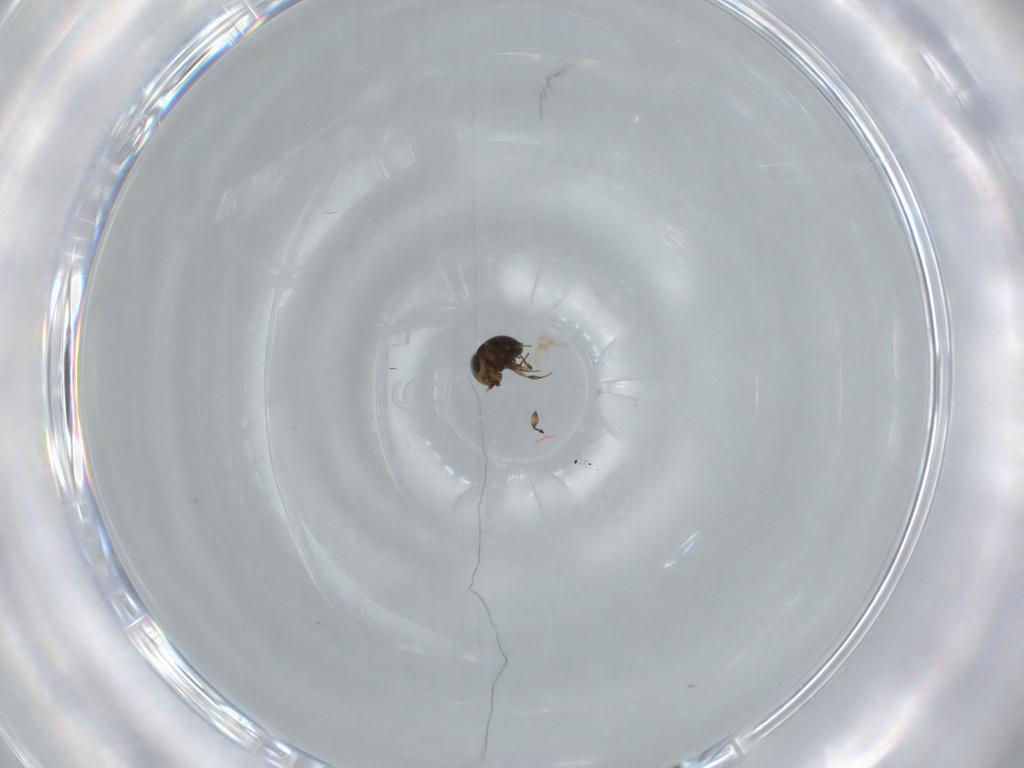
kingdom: Animalia
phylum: Arthropoda
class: Insecta
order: Hymenoptera
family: Scelionidae
